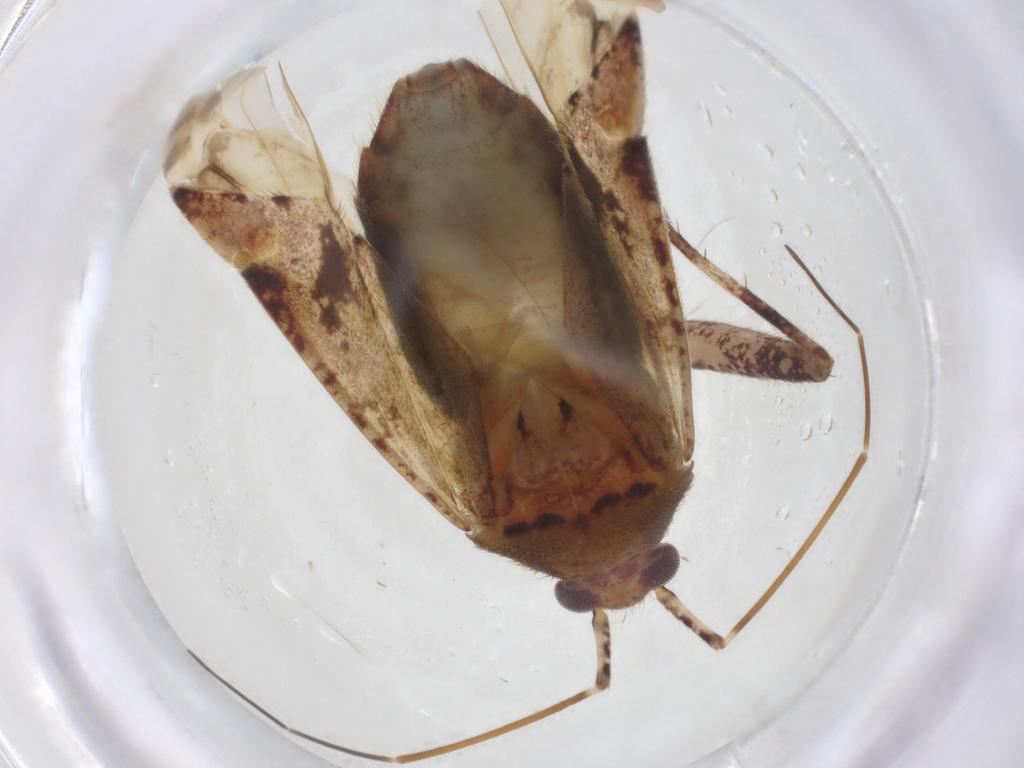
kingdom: Animalia
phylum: Arthropoda
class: Insecta
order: Hemiptera
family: Miridae
